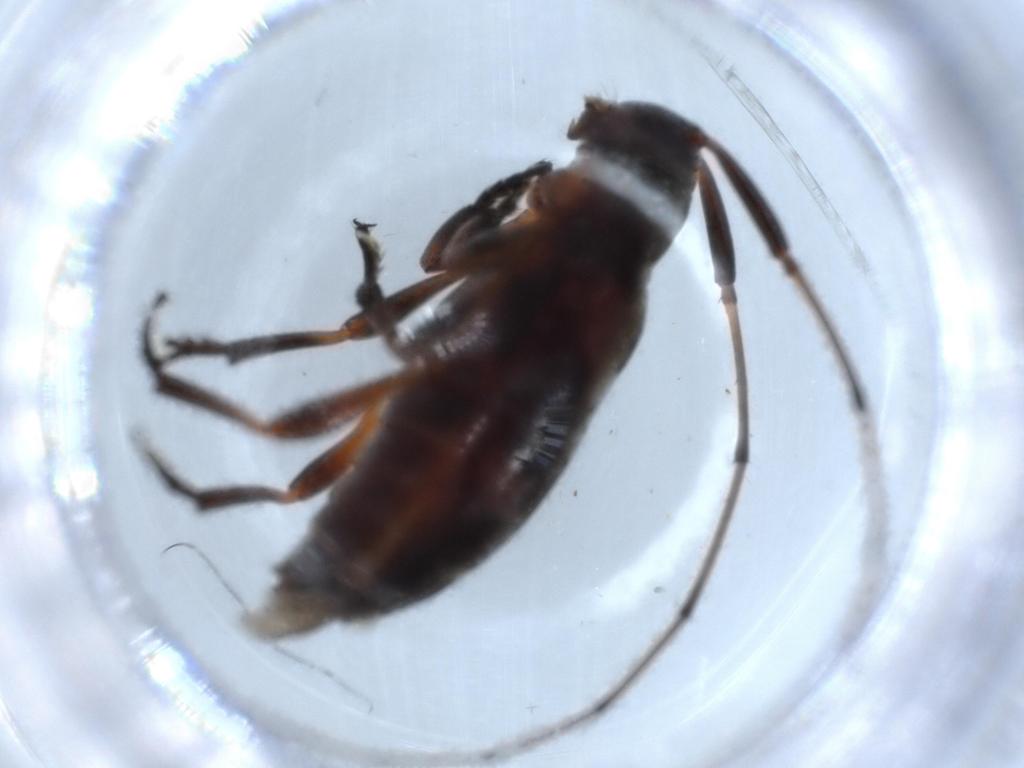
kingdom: Animalia
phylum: Arthropoda
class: Insecta
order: Coleoptera
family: Cerambycidae
